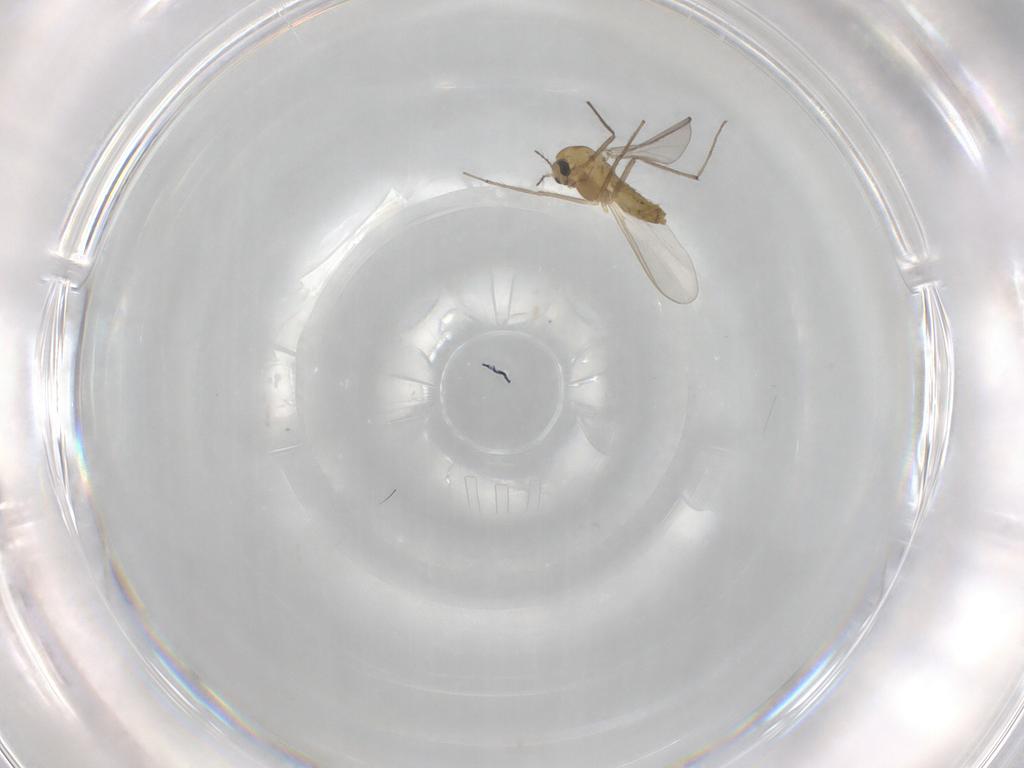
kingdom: Animalia
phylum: Arthropoda
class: Insecta
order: Diptera
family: Chironomidae
